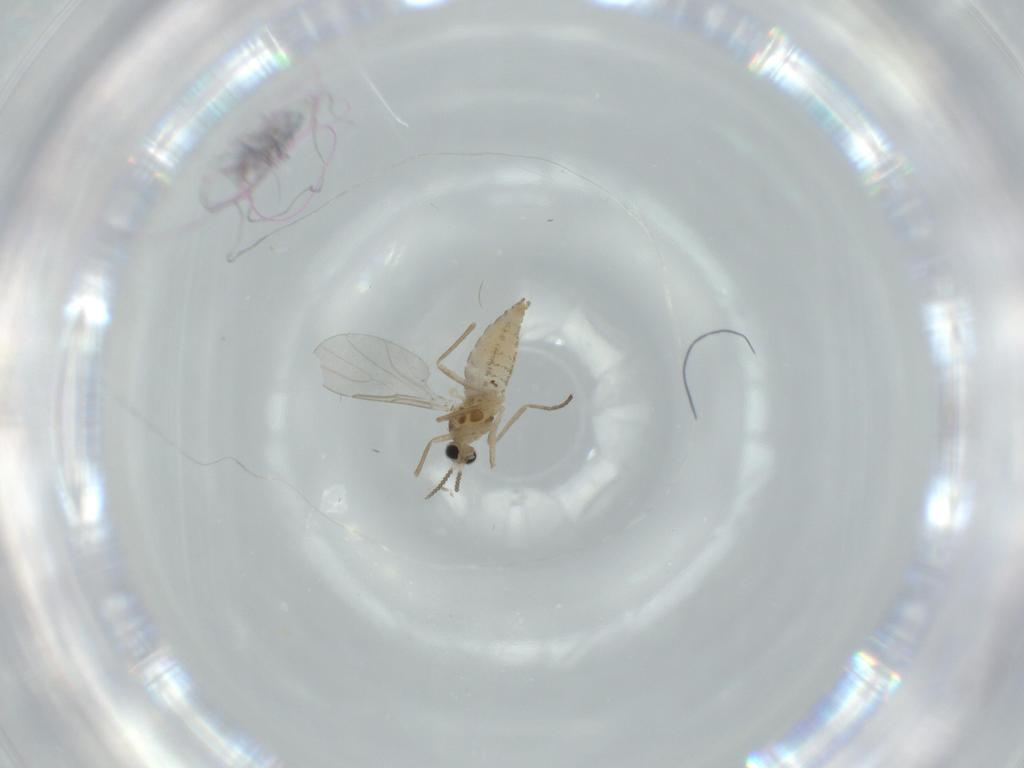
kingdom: Animalia
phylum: Arthropoda
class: Insecta
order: Diptera
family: Cecidomyiidae
